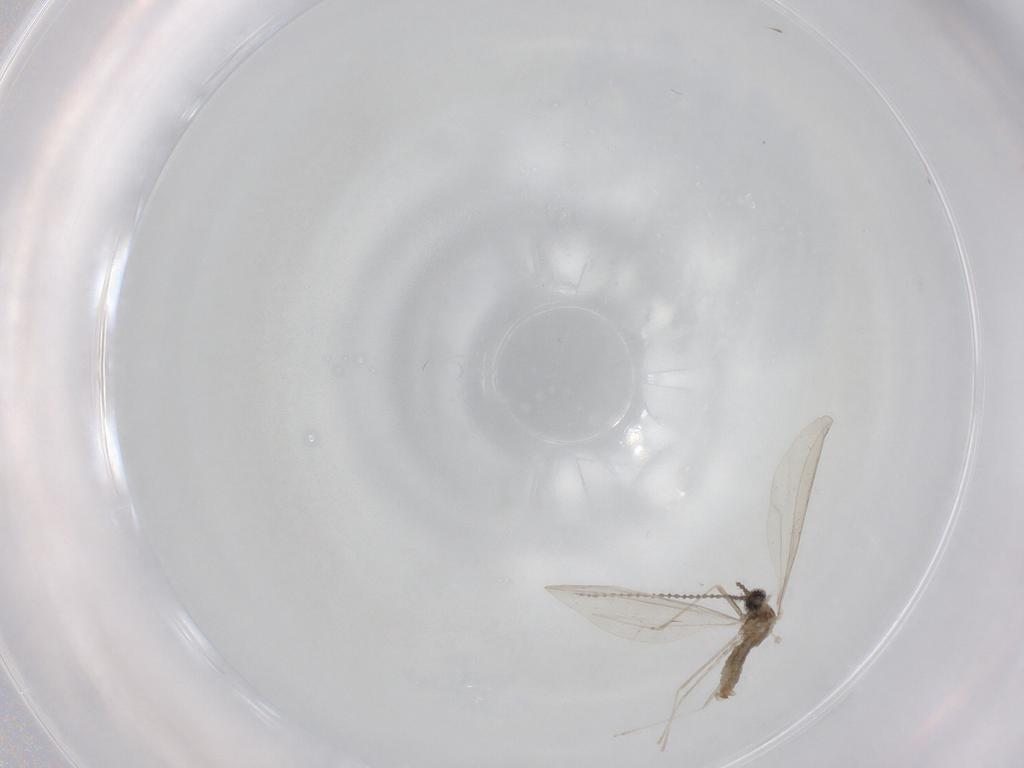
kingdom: Animalia
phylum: Arthropoda
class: Insecta
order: Diptera
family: Cecidomyiidae
